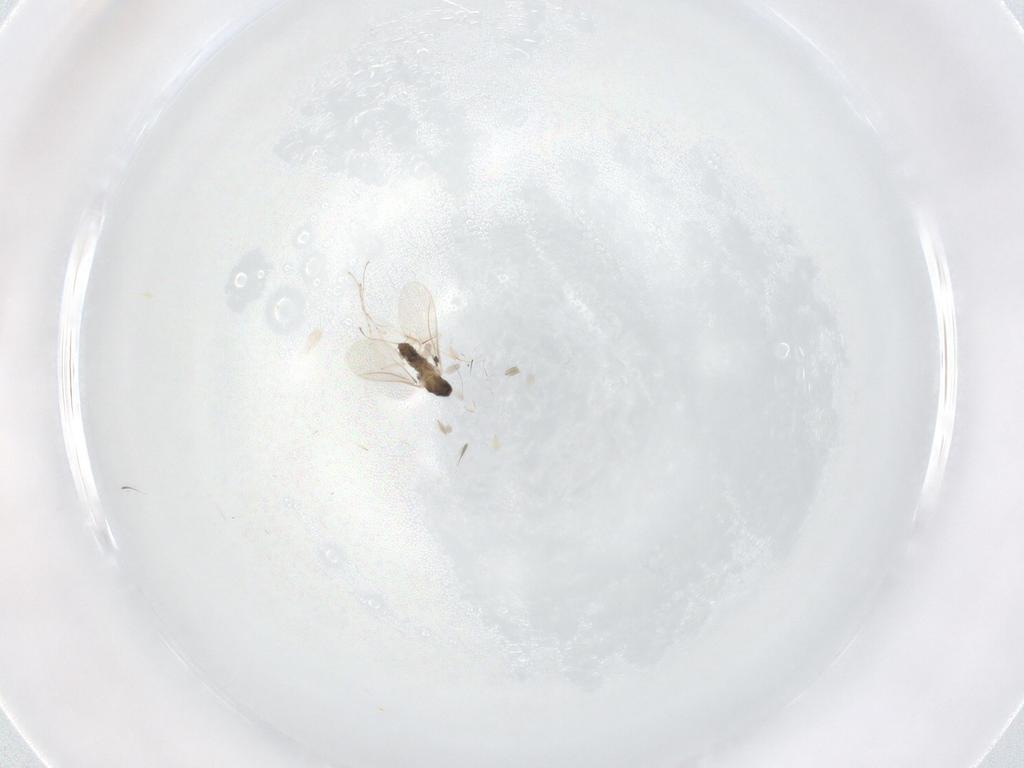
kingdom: Animalia
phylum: Arthropoda
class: Insecta
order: Diptera
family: Cecidomyiidae
